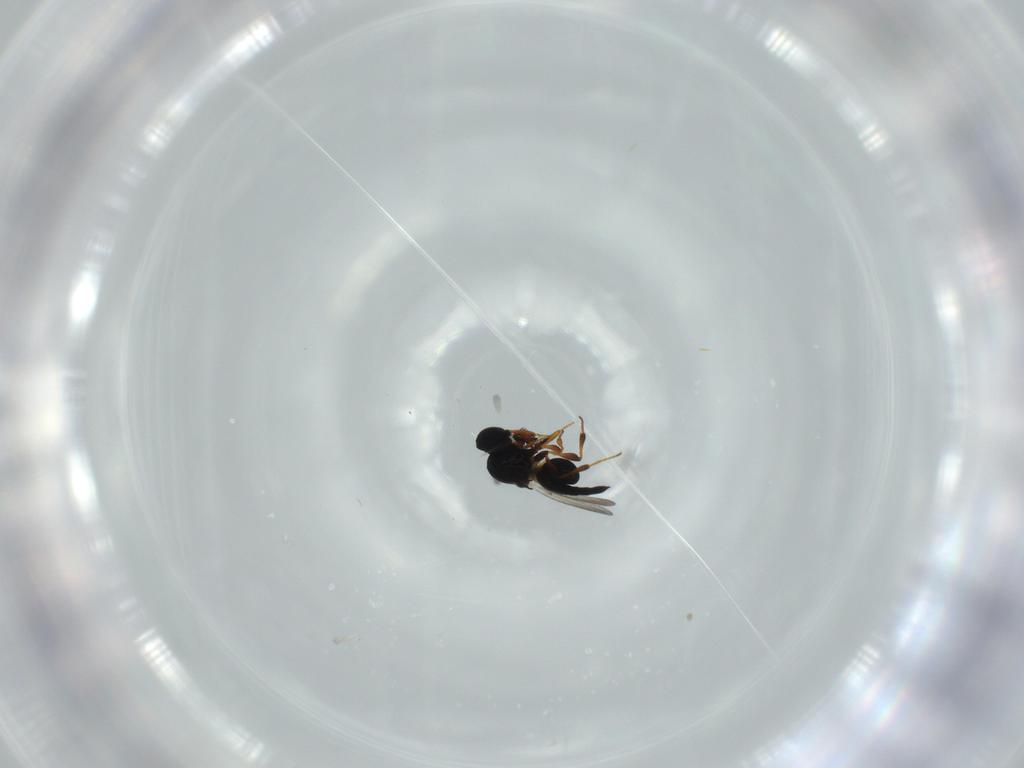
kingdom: Animalia
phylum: Arthropoda
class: Insecta
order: Hymenoptera
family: Platygastridae
